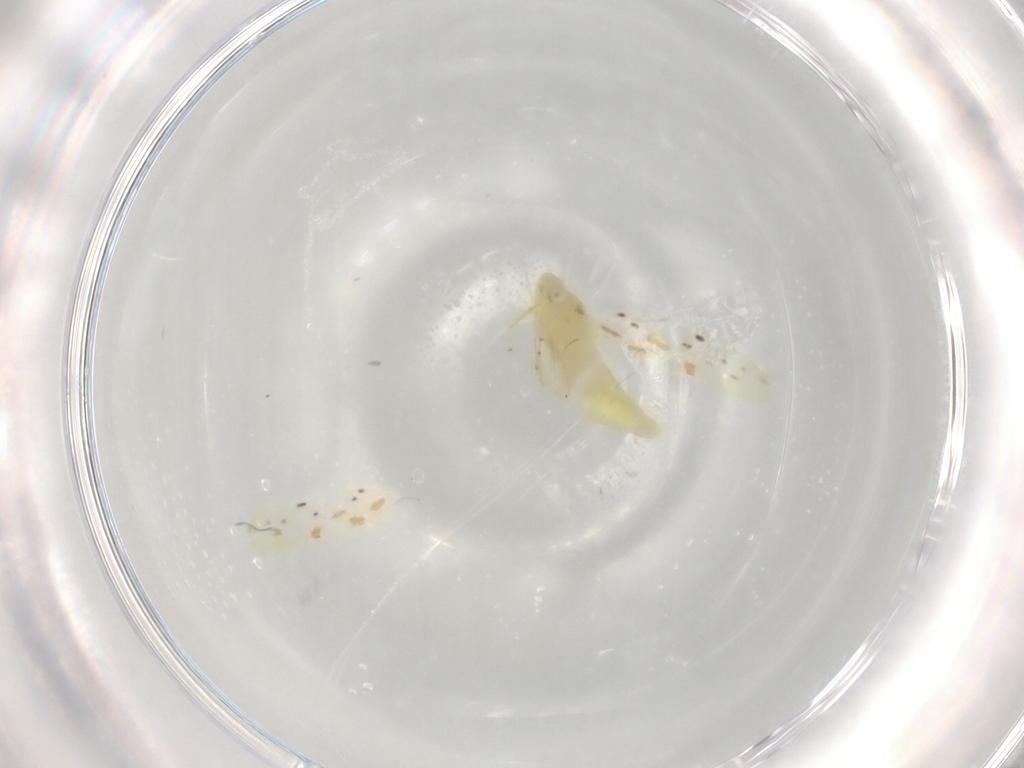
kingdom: Animalia
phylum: Arthropoda
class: Insecta
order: Hemiptera
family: Cicadellidae
